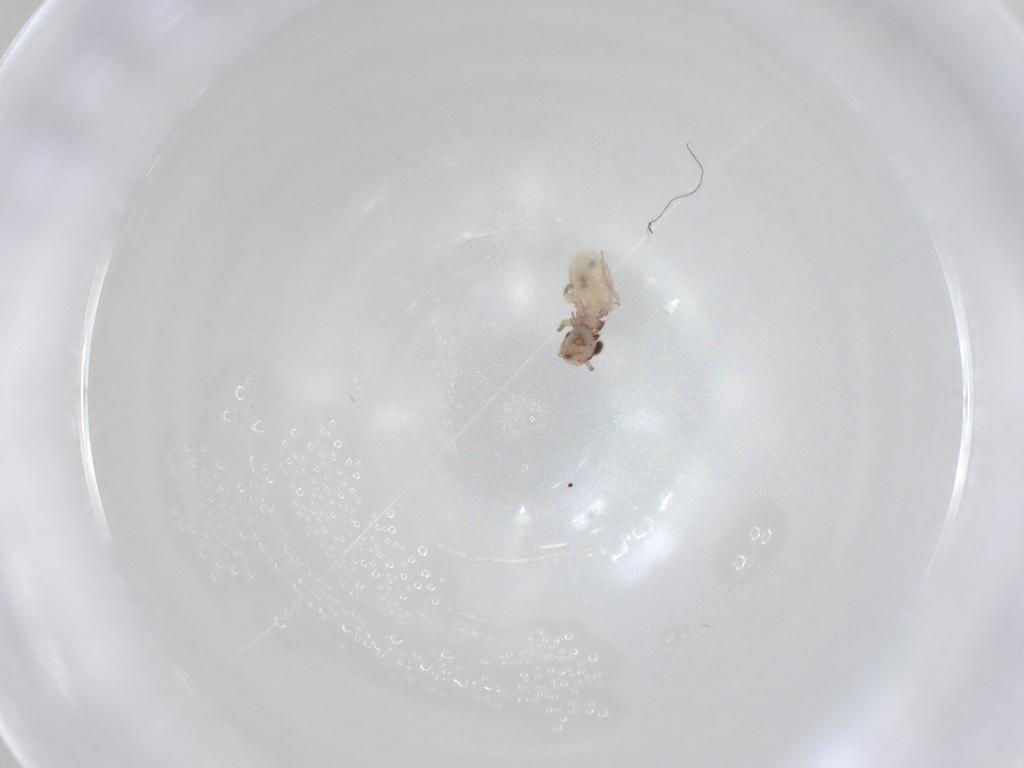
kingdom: Animalia
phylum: Arthropoda
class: Insecta
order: Psocodea
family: Trogiidae
